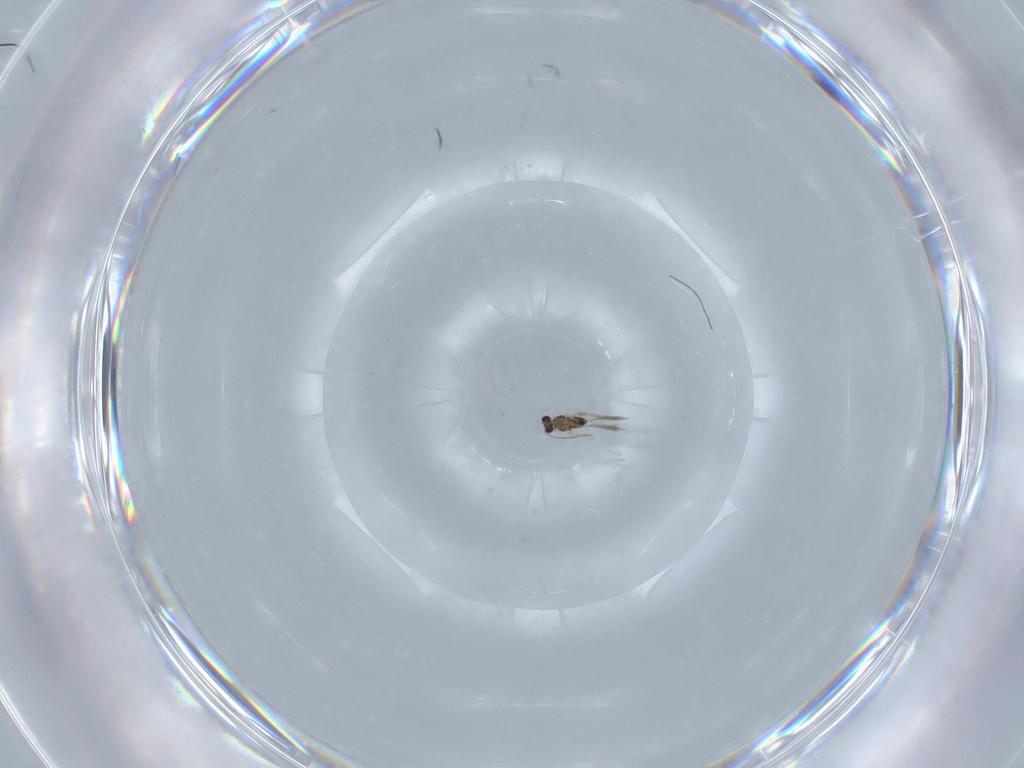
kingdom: Animalia
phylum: Arthropoda
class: Insecta
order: Hymenoptera
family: Mymaridae
